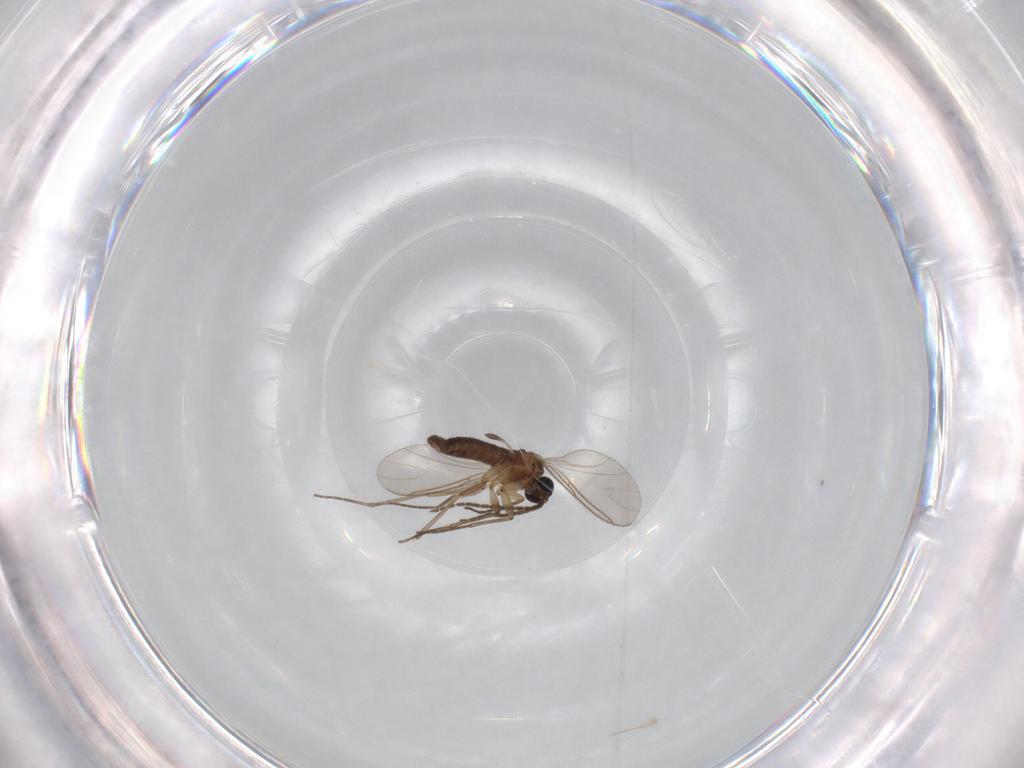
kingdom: Animalia
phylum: Arthropoda
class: Insecta
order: Diptera
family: Sciaridae
